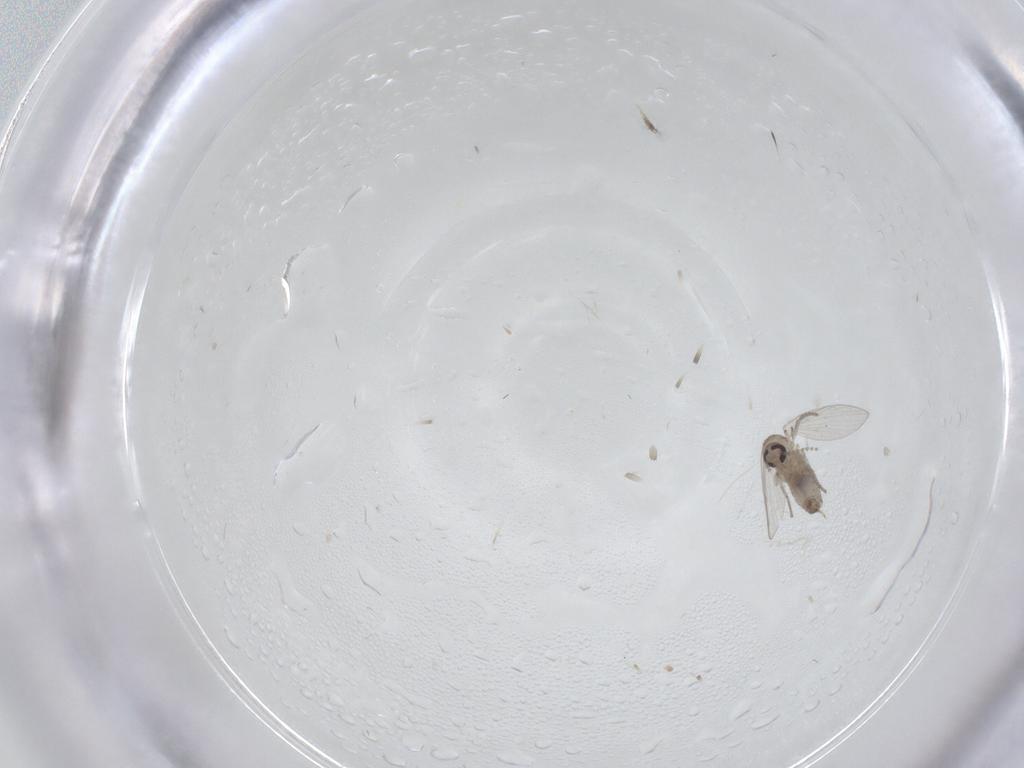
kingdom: Animalia
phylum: Arthropoda
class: Insecta
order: Diptera
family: Psychodidae
